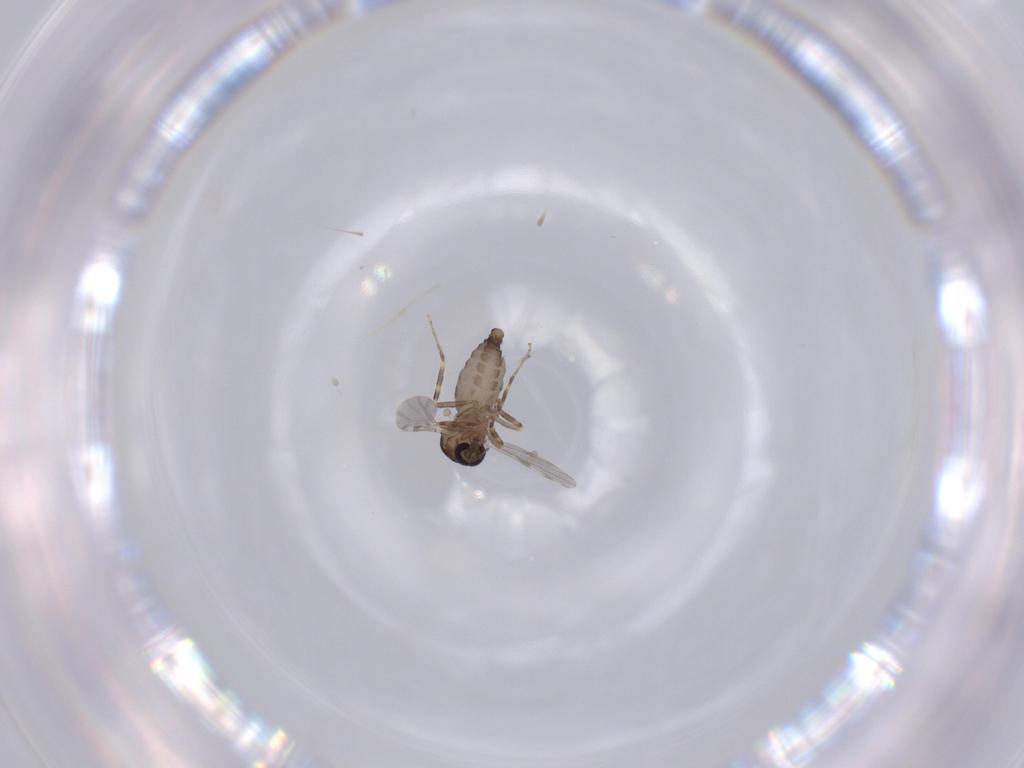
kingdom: Animalia
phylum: Arthropoda
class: Insecta
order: Diptera
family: Ceratopogonidae
